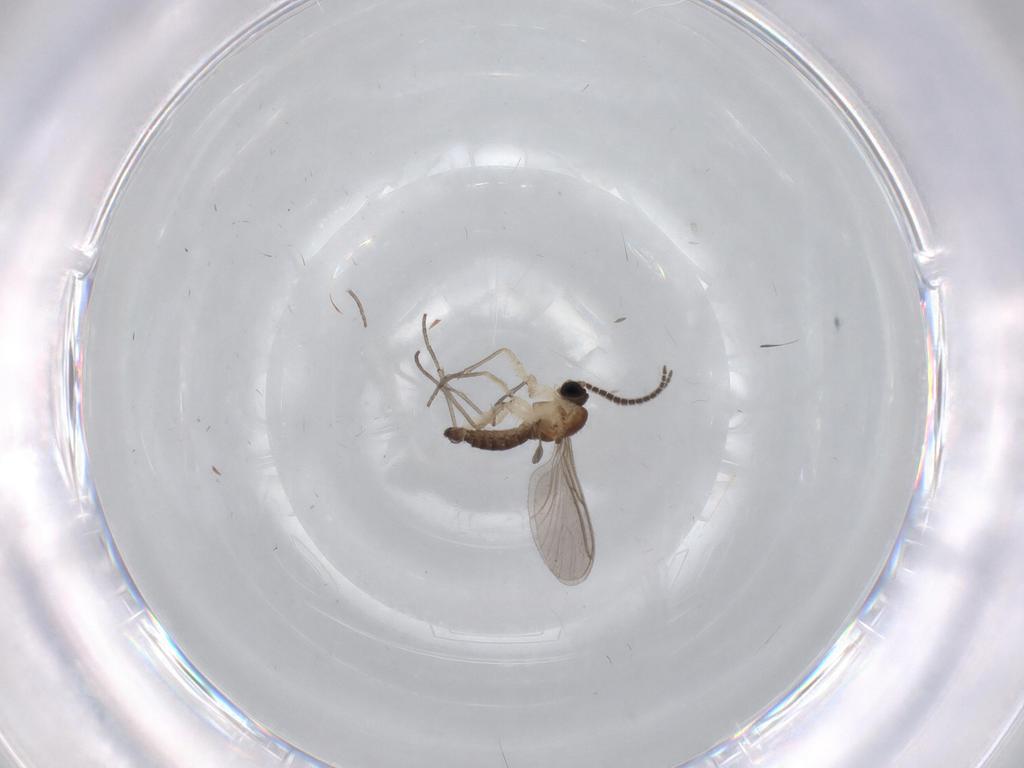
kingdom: Animalia
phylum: Arthropoda
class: Insecta
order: Diptera
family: Sciaridae
